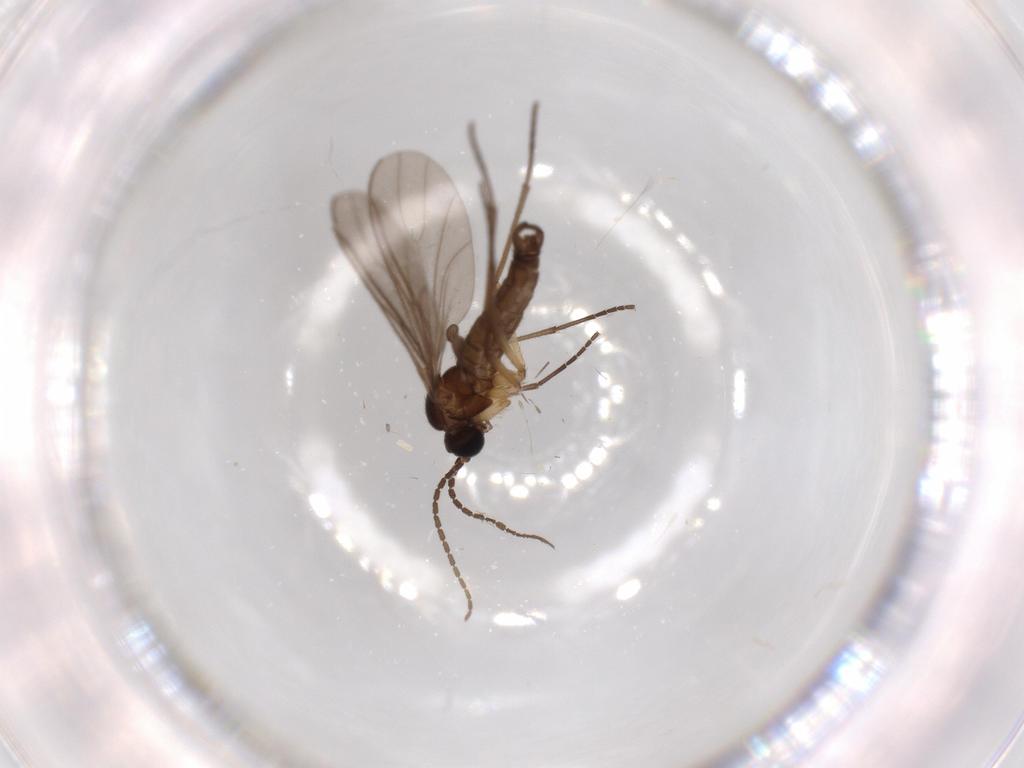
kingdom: Animalia
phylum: Arthropoda
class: Insecta
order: Diptera
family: Sciaridae
